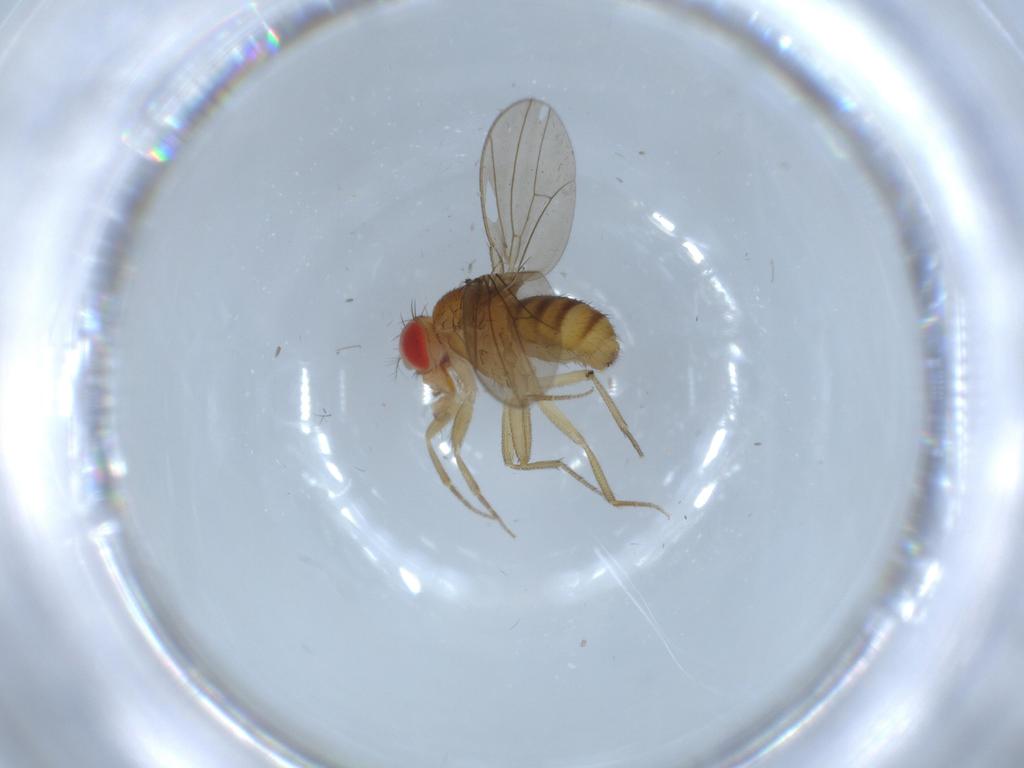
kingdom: Animalia
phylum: Arthropoda
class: Insecta
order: Diptera
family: Drosophilidae
